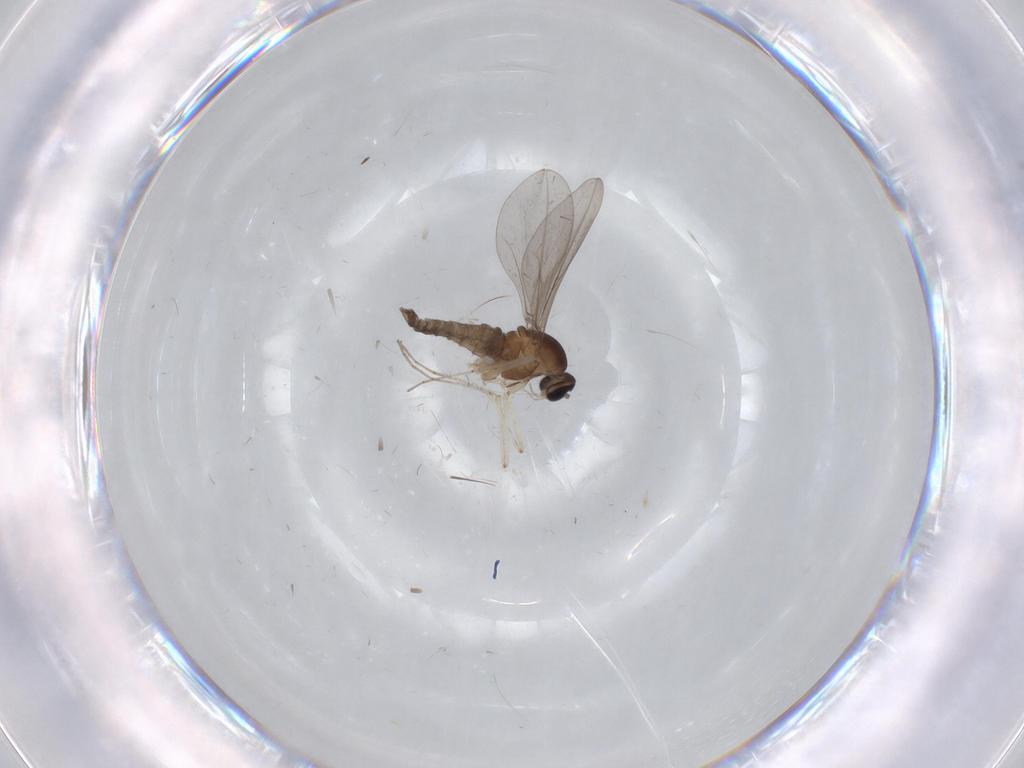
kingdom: Animalia
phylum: Arthropoda
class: Insecta
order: Diptera
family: Cecidomyiidae
